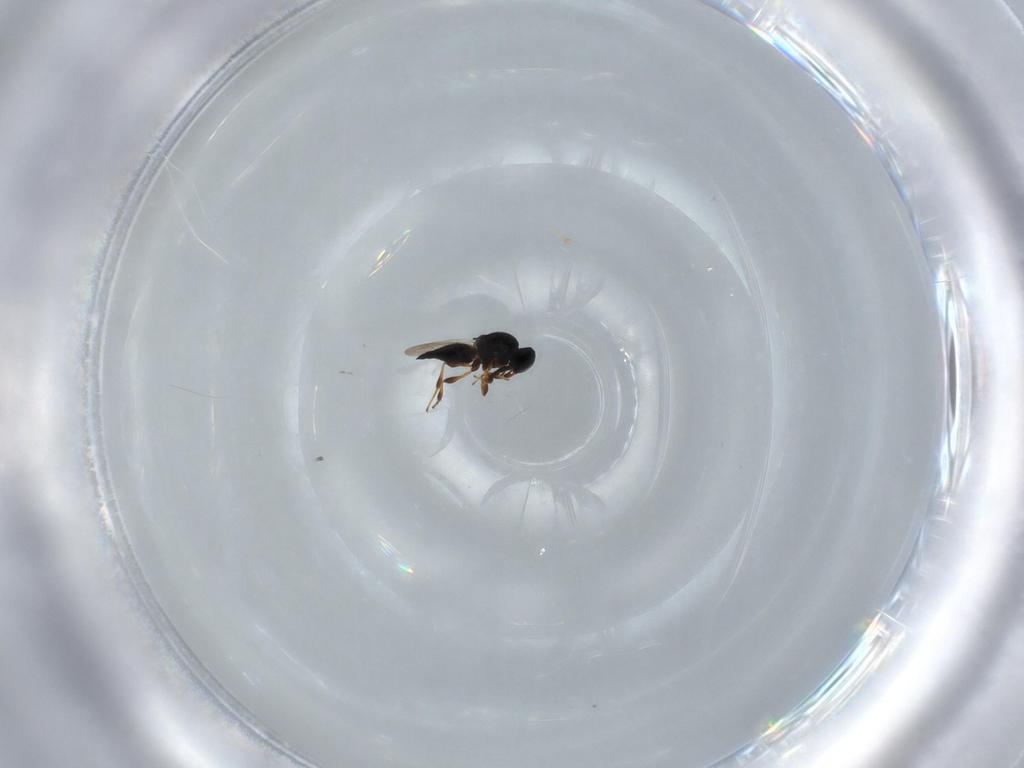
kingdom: Animalia
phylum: Arthropoda
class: Insecta
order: Hymenoptera
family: Platygastridae
